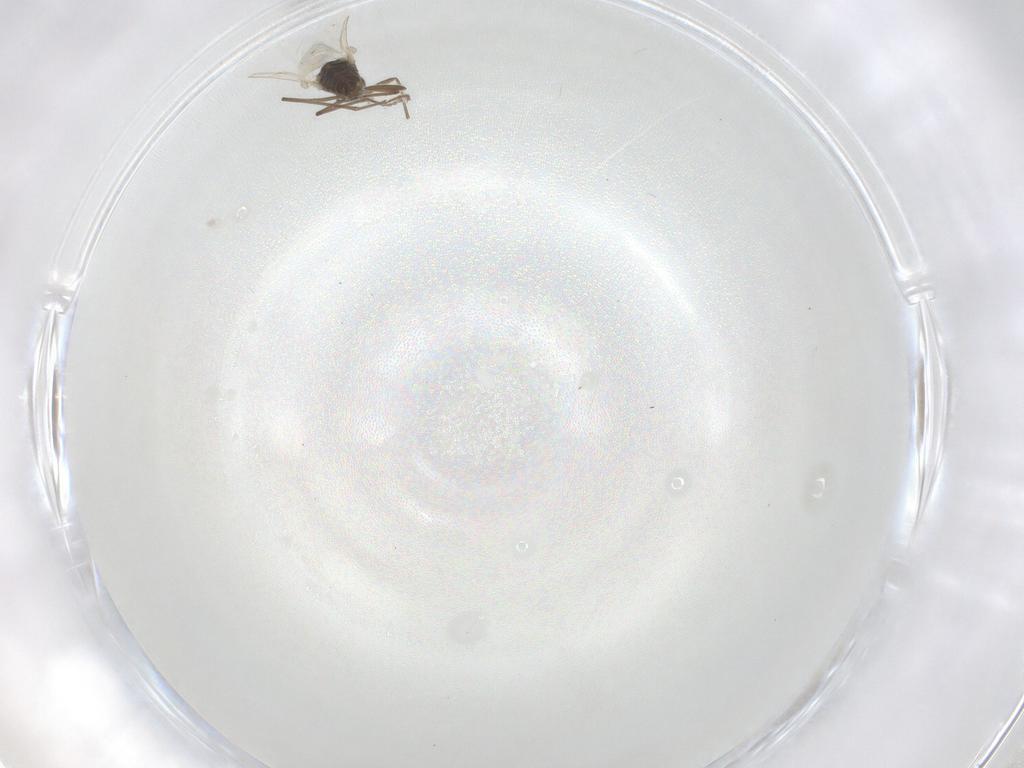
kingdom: Animalia
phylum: Arthropoda
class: Insecta
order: Diptera
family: Cecidomyiidae
